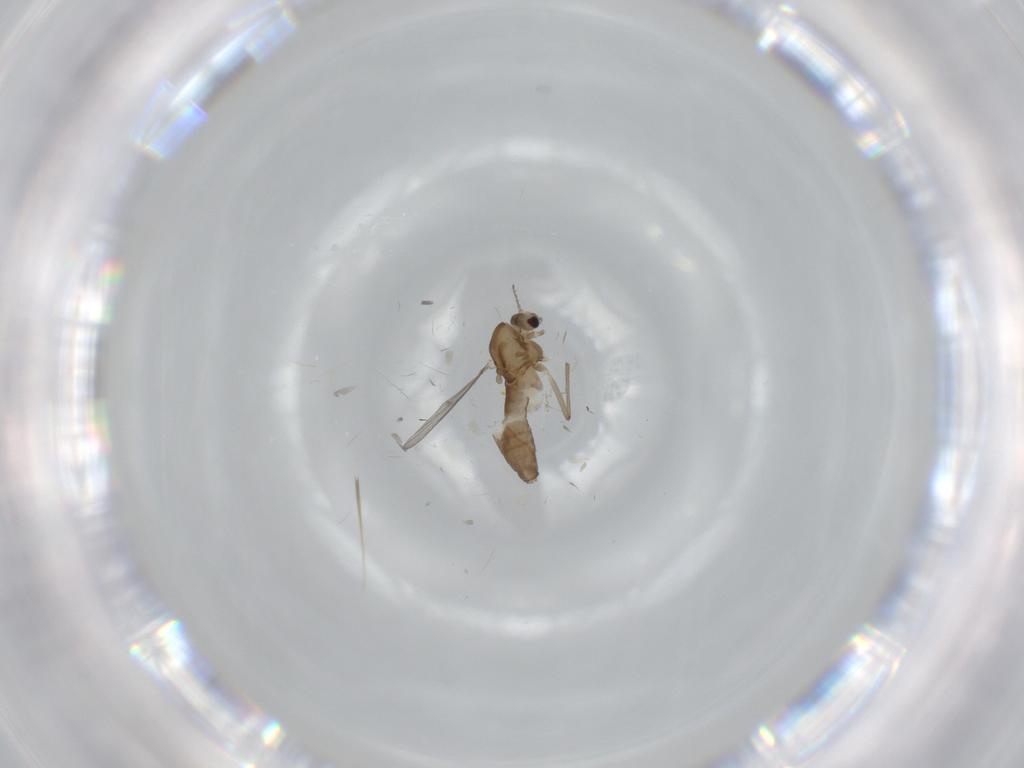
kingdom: Animalia
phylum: Arthropoda
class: Insecta
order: Diptera
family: Chironomidae
